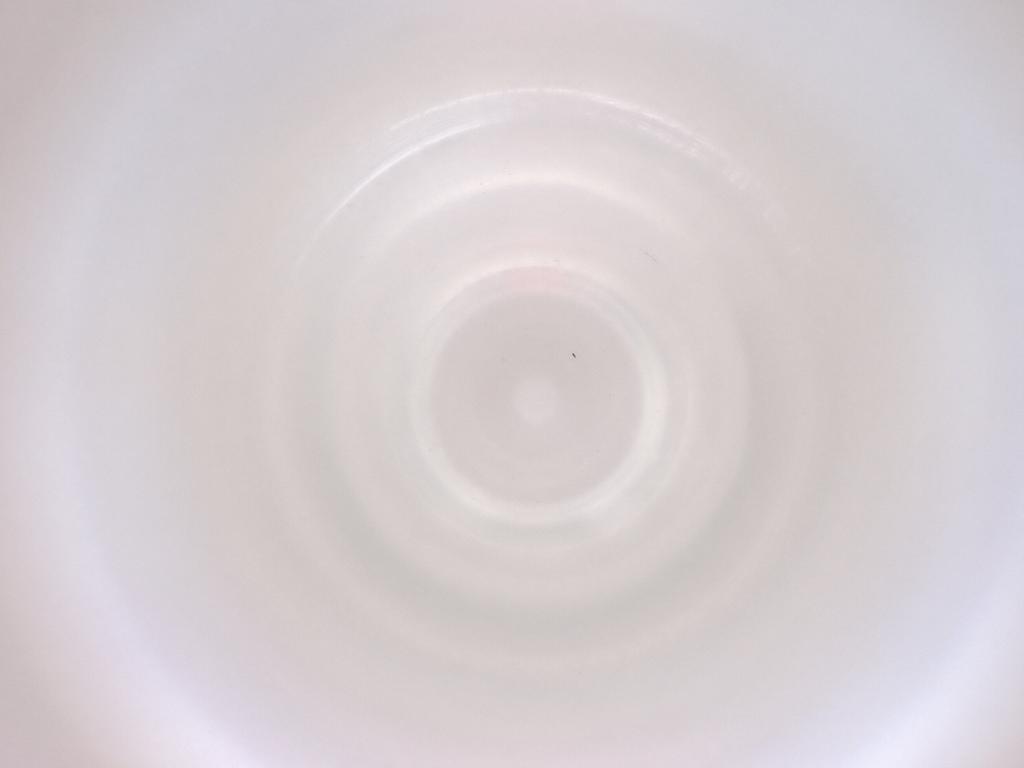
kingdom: Animalia
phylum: Arthropoda
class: Insecta
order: Diptera
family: Cecidomyiidae
